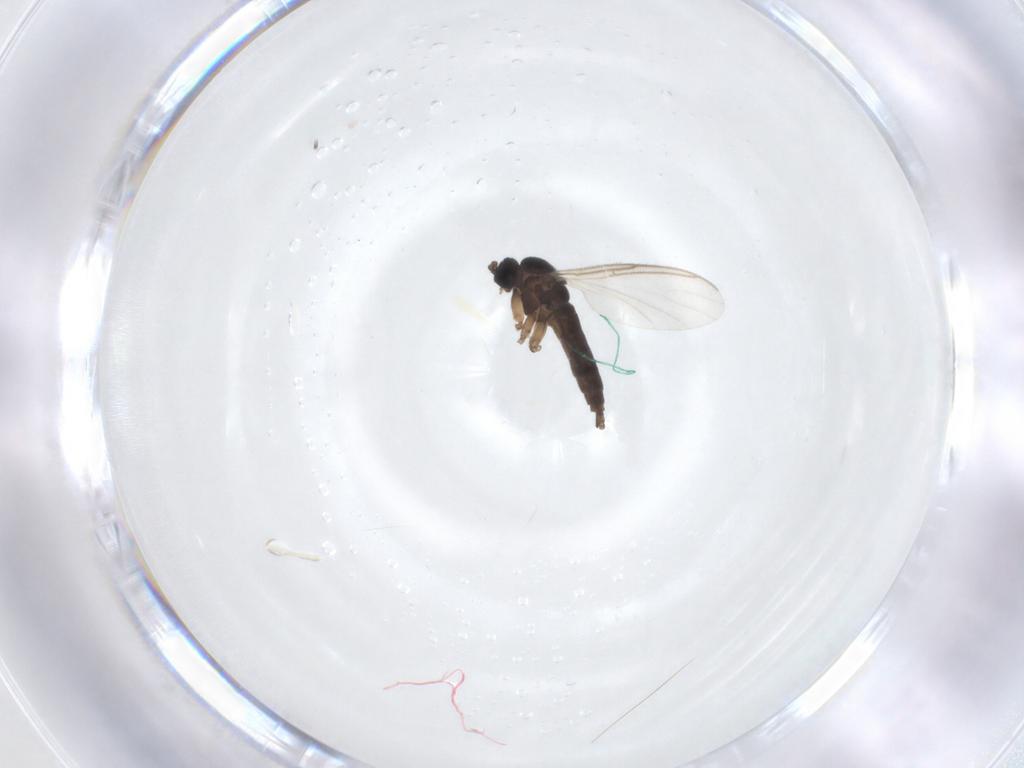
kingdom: Animalia
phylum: Arthropoda
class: Insecta
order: Diptera
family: Sciaridae
